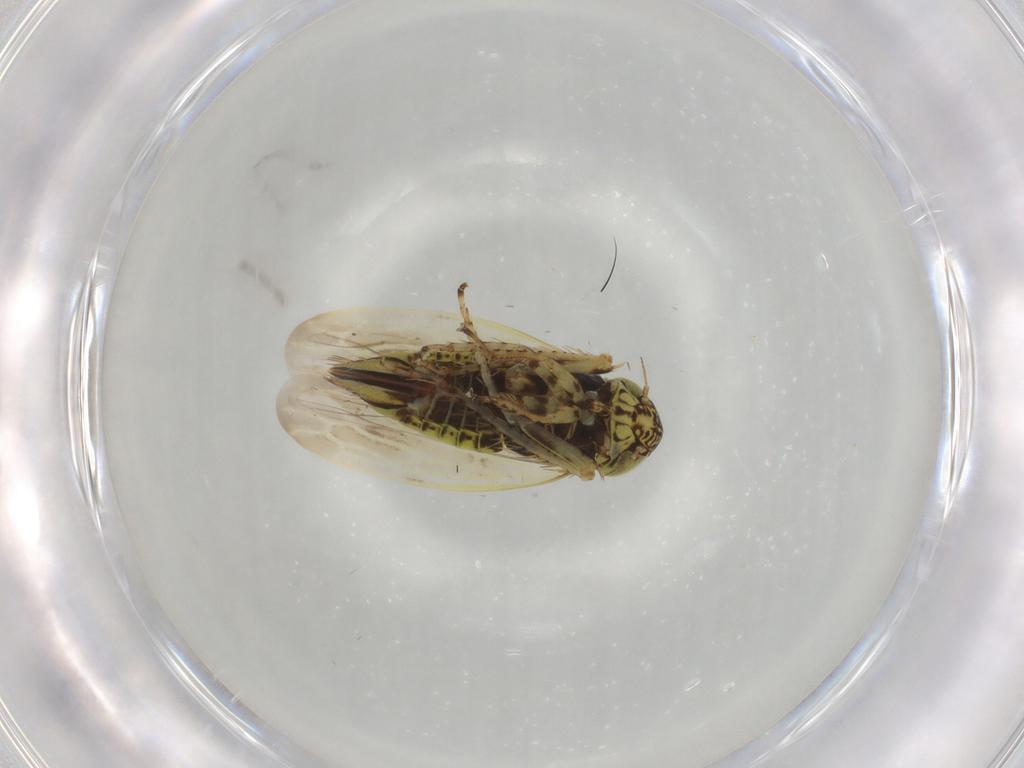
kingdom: Animalia
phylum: Arthropoda
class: Insecta
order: Hemiptera
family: Cicadellidae
